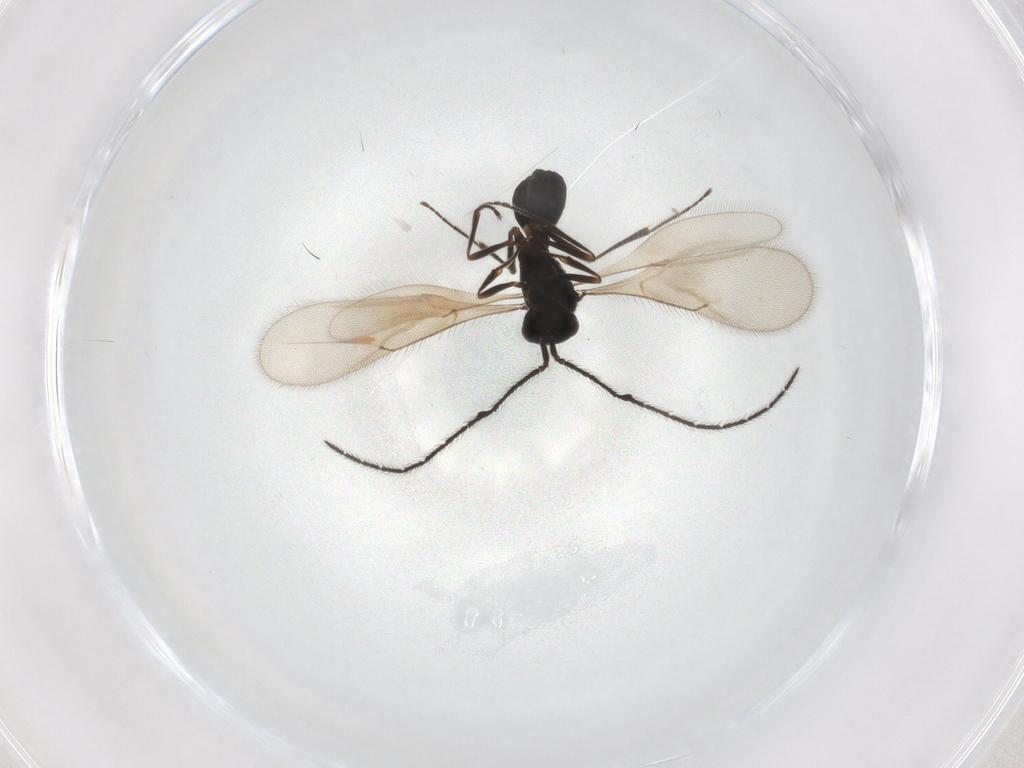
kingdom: Animalia
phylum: Arthropoda
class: Insecta
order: Hymenoptera
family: Scelionidae
